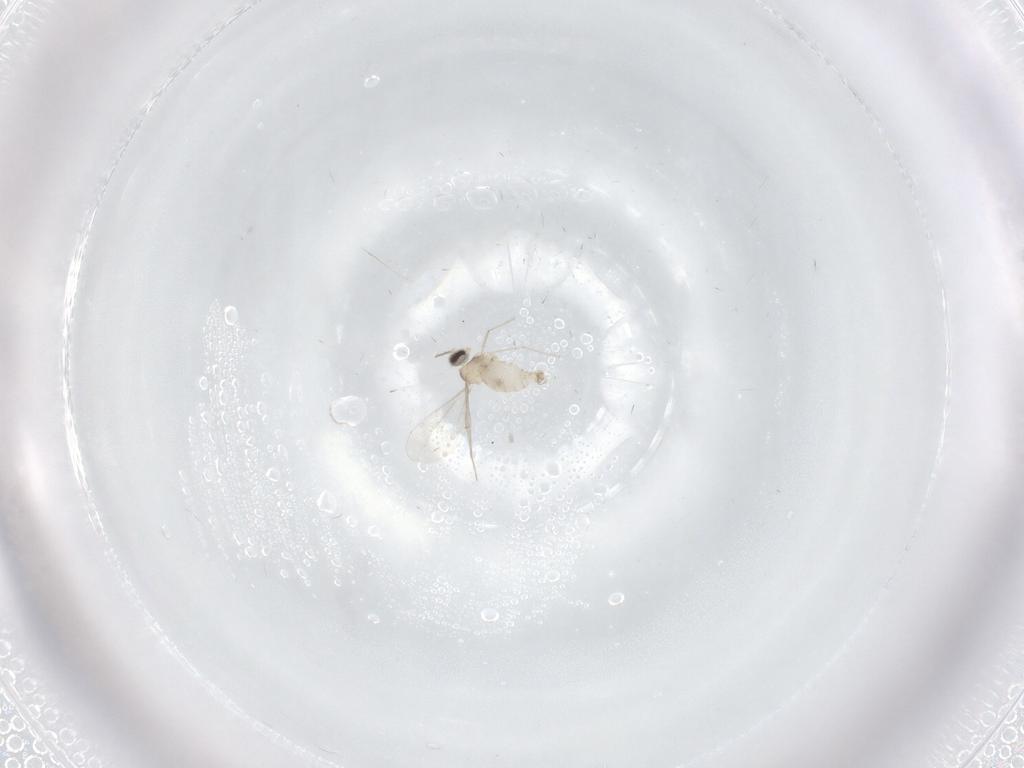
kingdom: Animalia
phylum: Arthropoda
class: Insecta
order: Diptera
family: Cecidomyiidae
